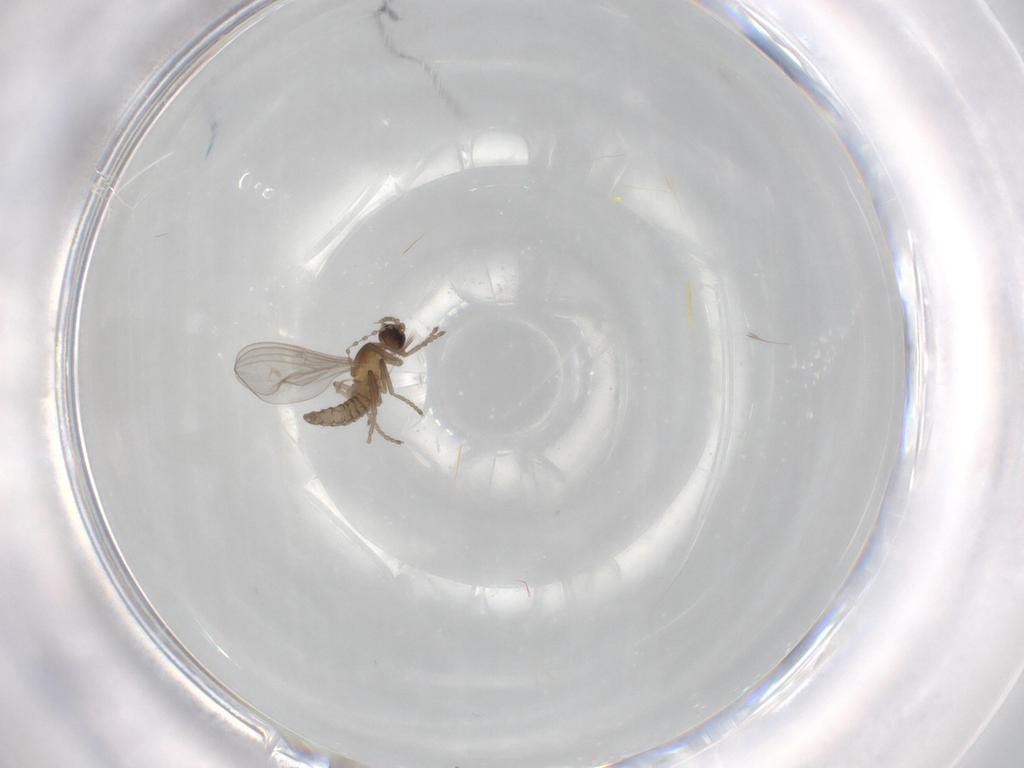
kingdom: Animalia
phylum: Arthropoda
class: Insecta
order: Diptera
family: Cecidomyiidae
